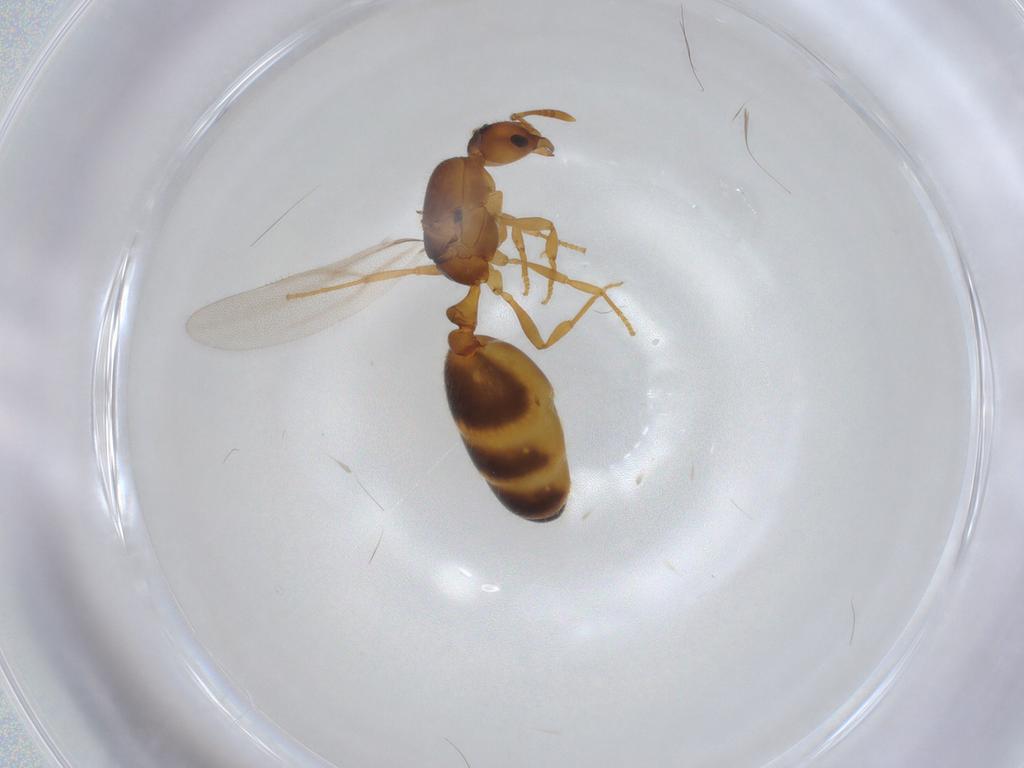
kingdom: Animalia
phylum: Arthropoda
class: Insecta
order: Hymenoptera
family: Formicidae
